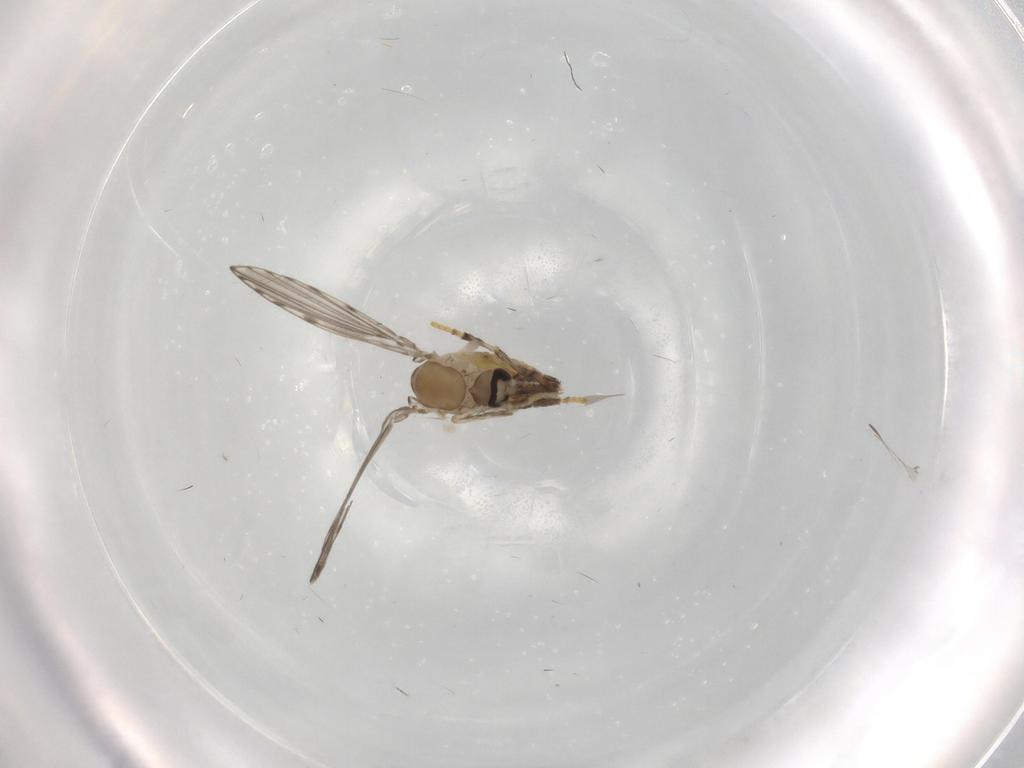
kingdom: Animalia
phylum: Arthropoda
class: Insecta
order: Diptera
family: Psychodidae
